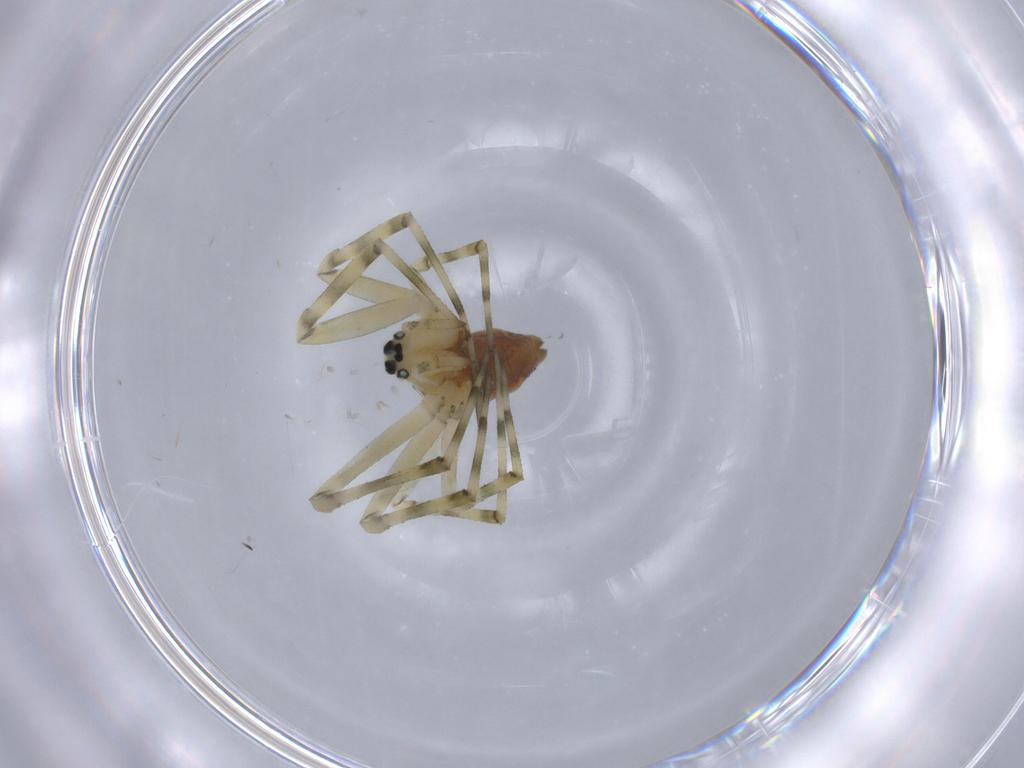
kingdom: Animalia
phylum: Arthropoda
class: Arachnida
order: Araneae
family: Linyphiidae
